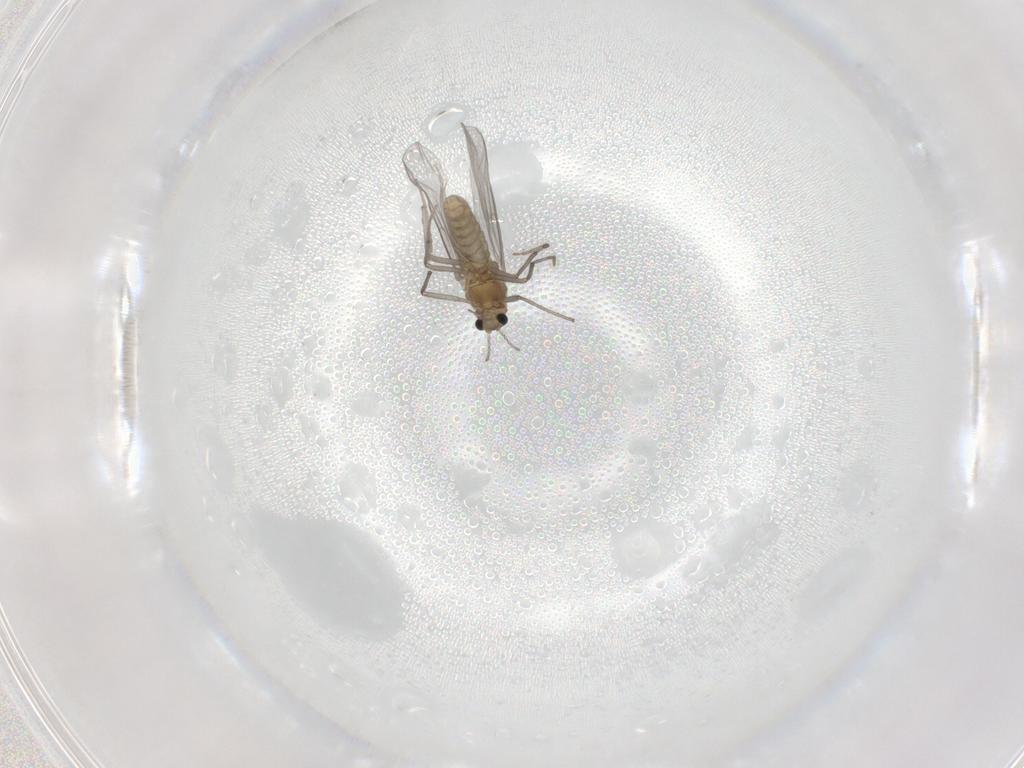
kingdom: Animalia
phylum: Arthropoda
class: Insecta
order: Diptera
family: Chironomidae
